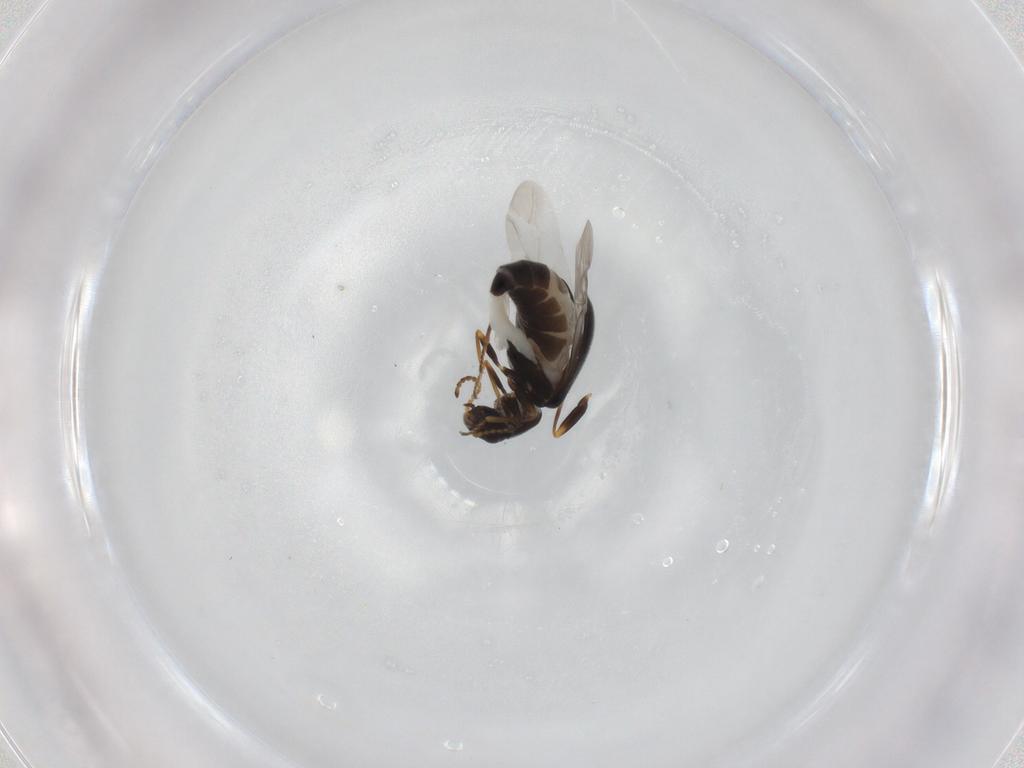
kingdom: Animalia
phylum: Arthropoda
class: Insecta
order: Coleoptera
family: Melyridae
